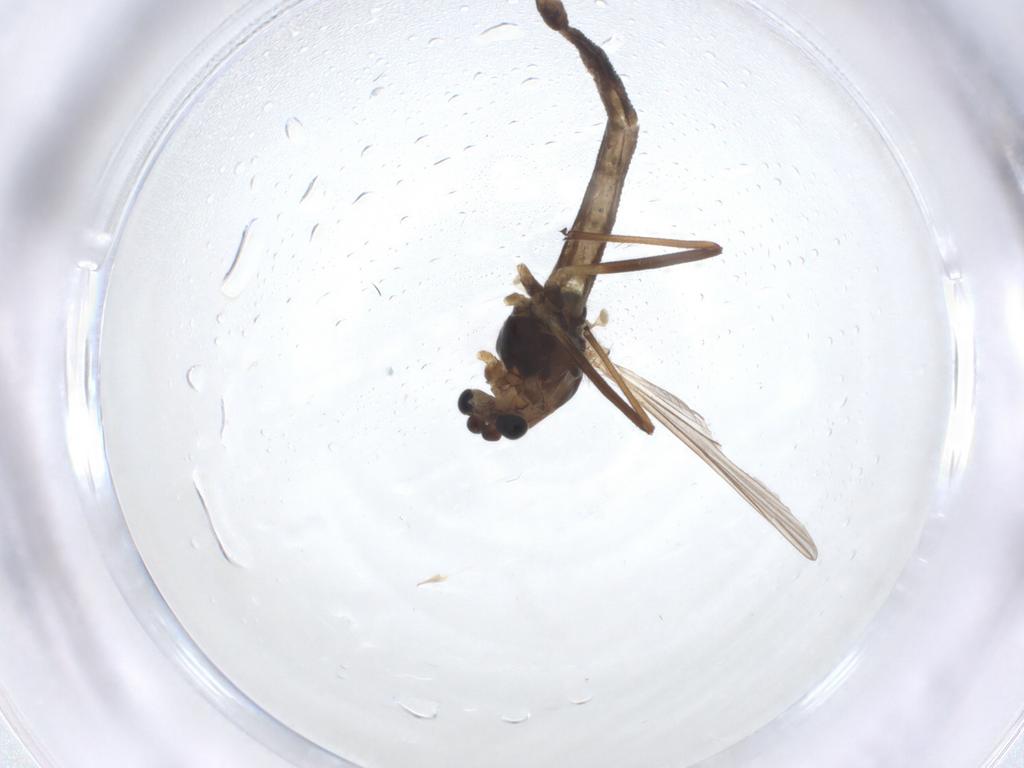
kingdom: Animalia
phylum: Arthropoda
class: Insecta
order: Diptera
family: Chironomidae
